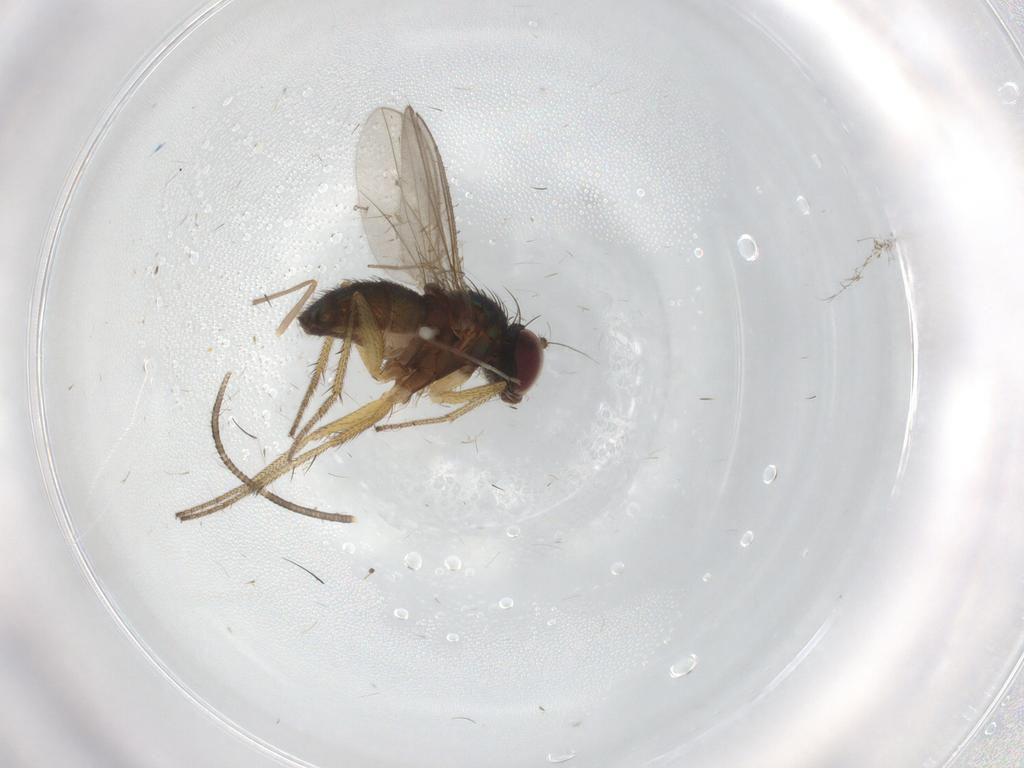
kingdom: Animalia
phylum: Arthropoda
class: Insecta
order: Diptera
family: Dolichopodidae
